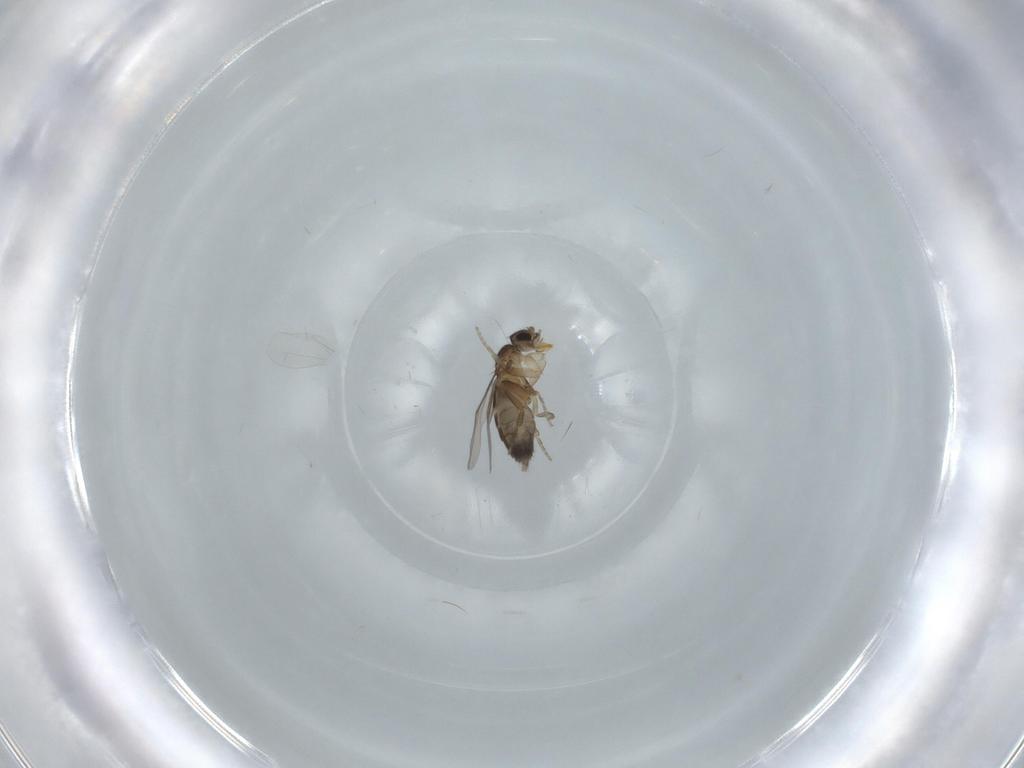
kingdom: Animalia
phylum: Arthropoda
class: Insecta
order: Diptera
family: Phoridae
